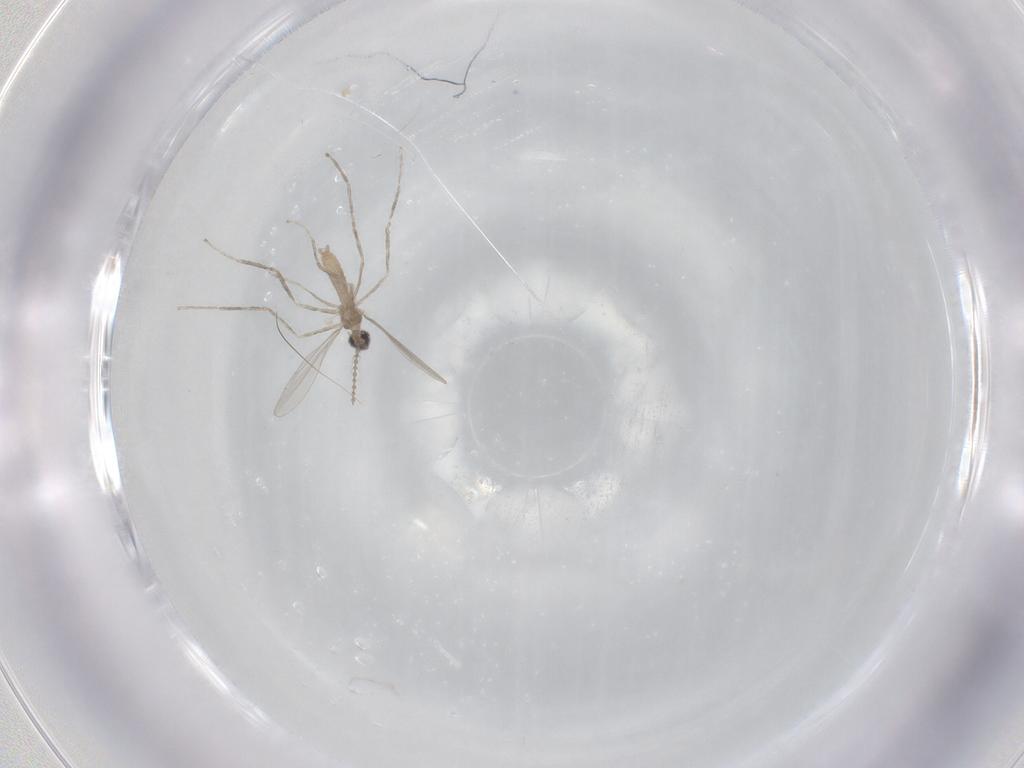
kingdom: Animalia
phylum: Arthropoda
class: Insecta
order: Diptera
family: Cecidomyiidae
